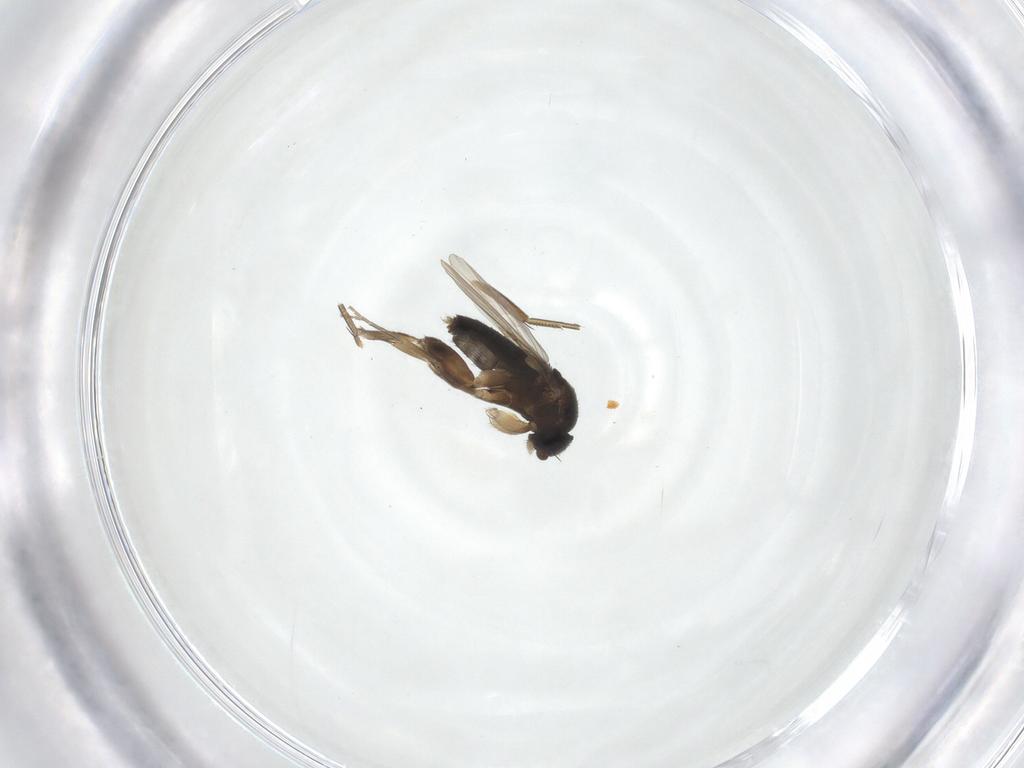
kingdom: Animalia
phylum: Arthropoda
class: Insecta
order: Diptera
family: Phoridae
